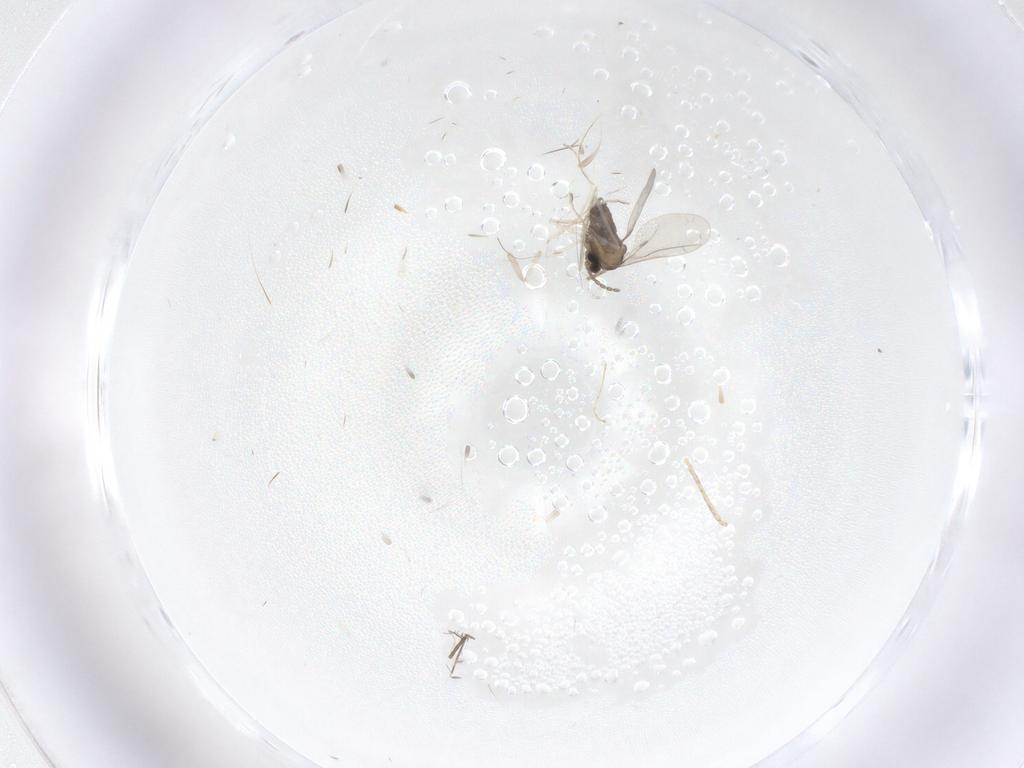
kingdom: Animalia
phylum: Arthropoda
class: Insecta
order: Diptera
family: Cecidomyiidae
